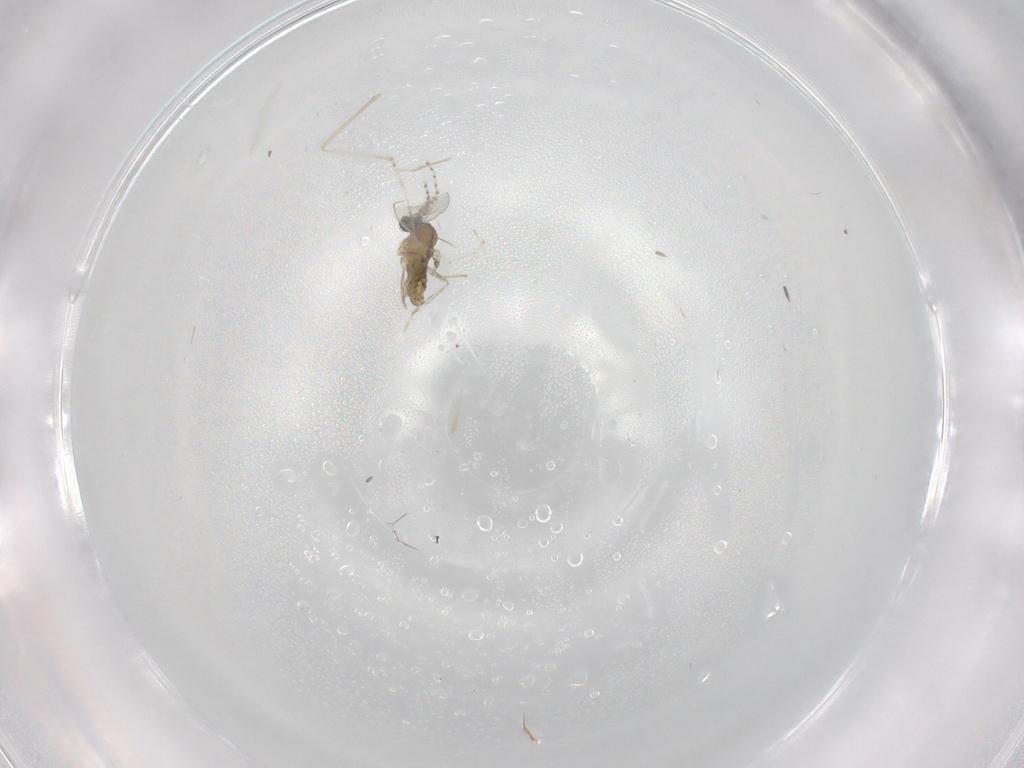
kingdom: Animalia
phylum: Arthropoda
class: Insecta
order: Diptera
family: Cecidomyiidae
